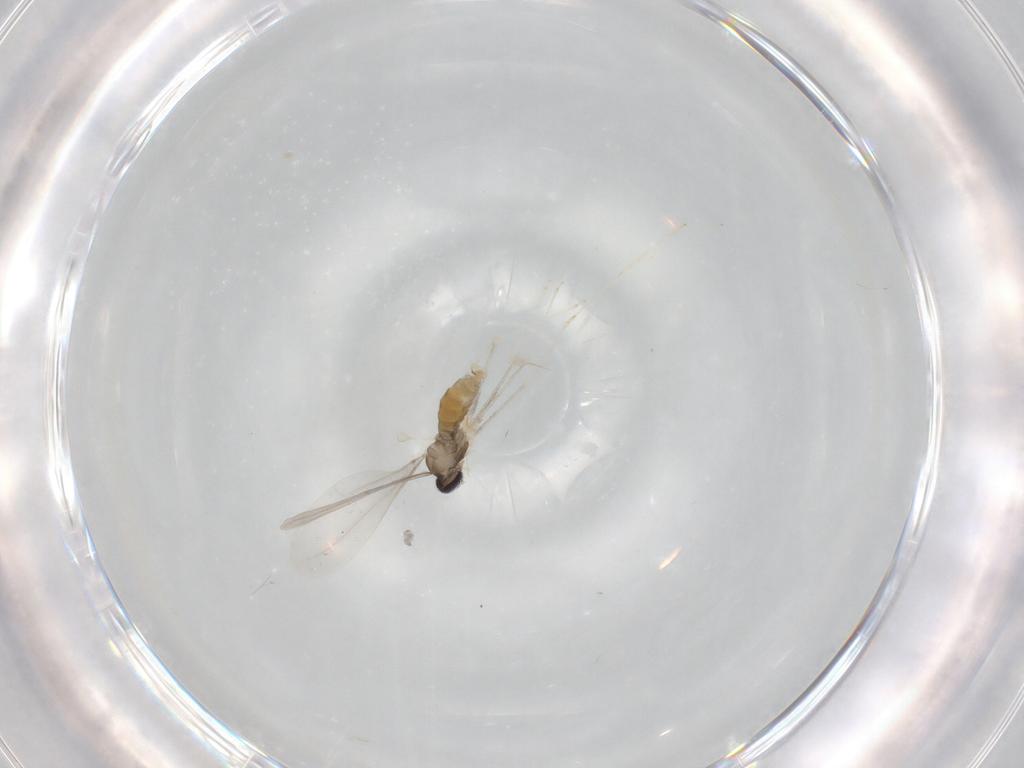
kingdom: Animalia
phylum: Arthropoda
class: Insecta
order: Diptera
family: Cecidomyiidae
